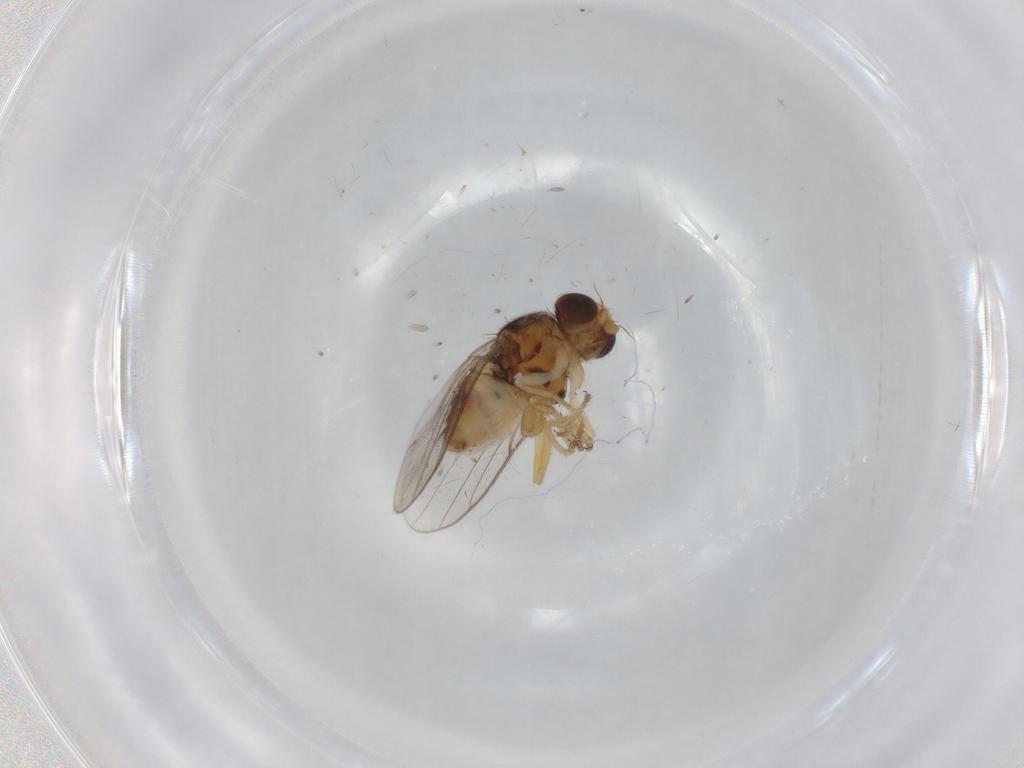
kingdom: Animalia
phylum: Arthropoda
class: Insecta
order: Diptera
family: Chloropidae
